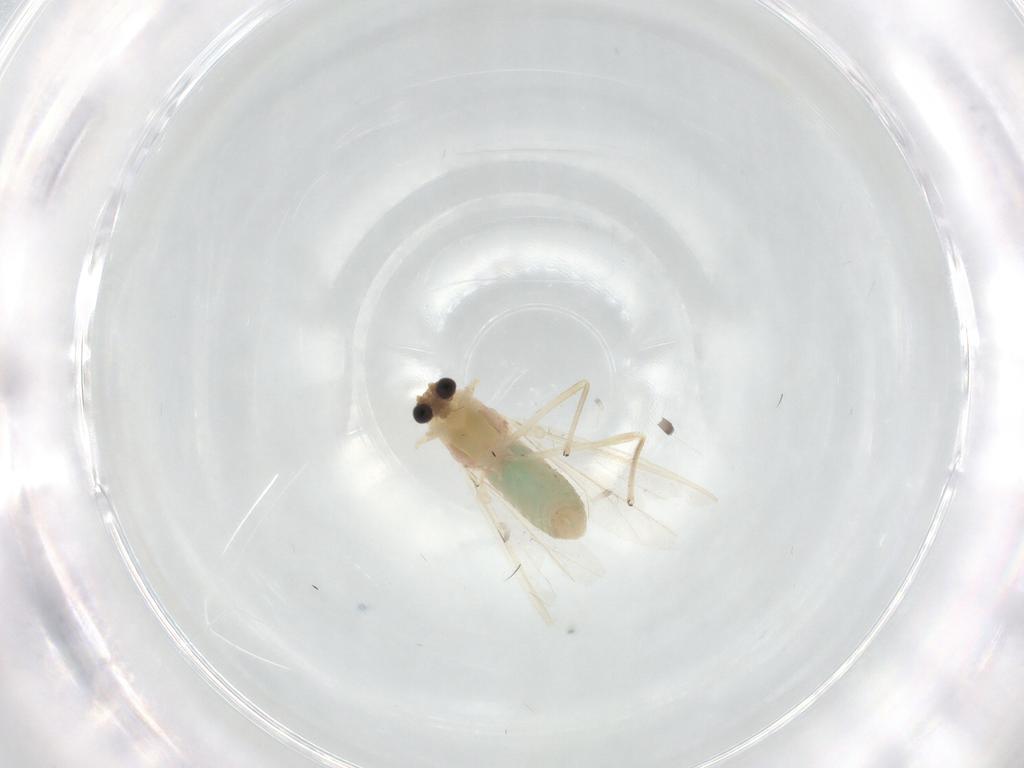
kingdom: Animalia
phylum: Arthropoda
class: Insecta
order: Diptera
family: Chironomidae
